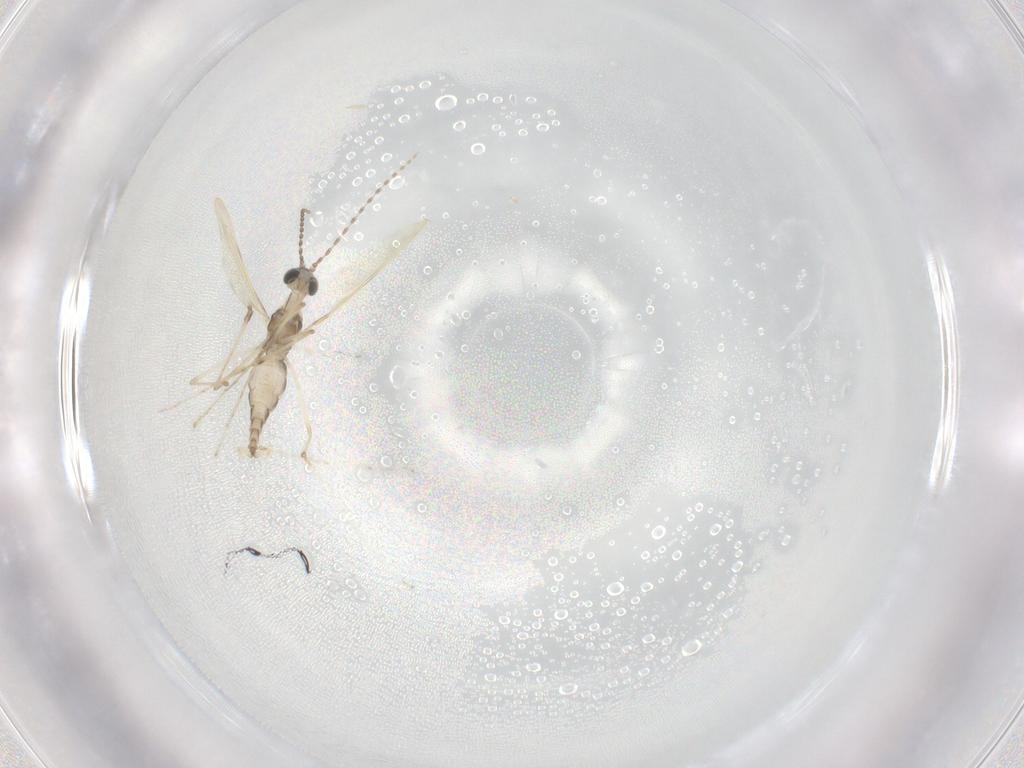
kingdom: Animalia
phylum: Arthropoda
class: Insecta
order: Diptera
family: Cecidomyiidae
